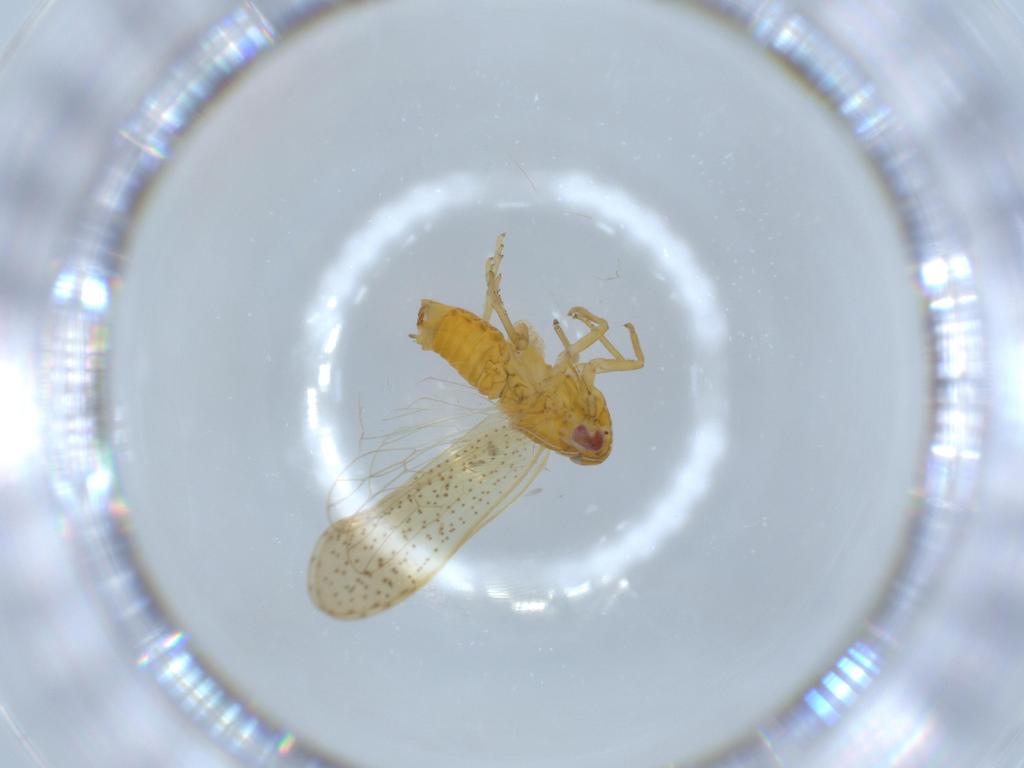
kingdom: Animalia
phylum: Arthropoda
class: Insecta
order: Hemiptera
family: Delphacidae
